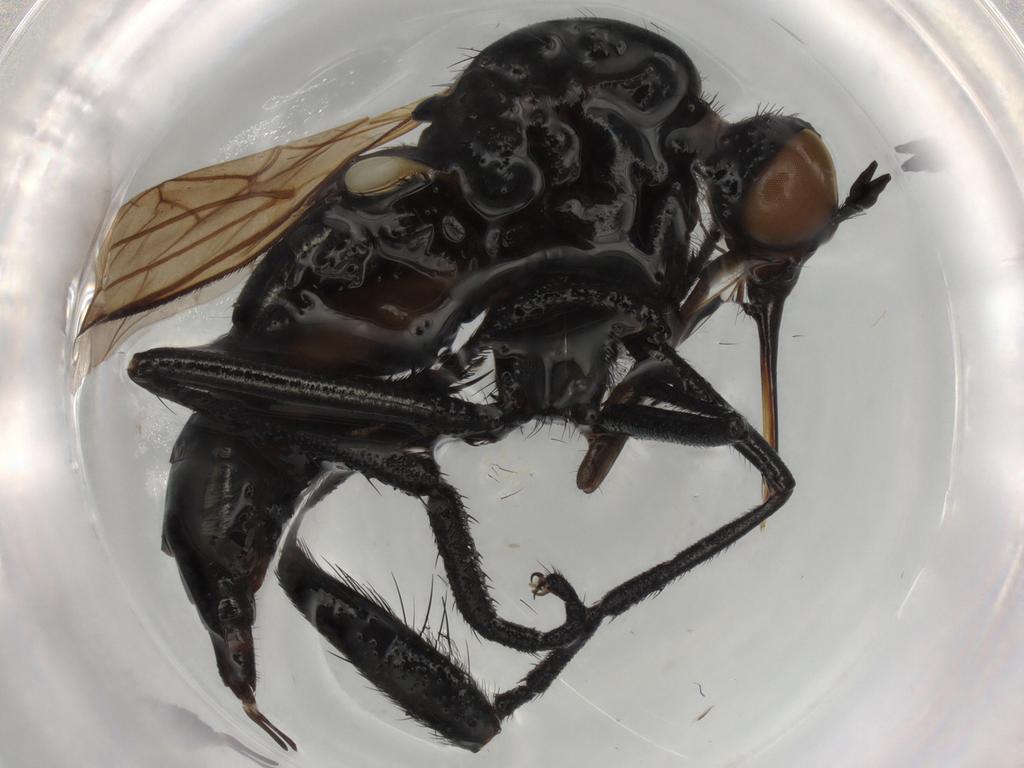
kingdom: Animalia
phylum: Arthropoda
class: Insecta
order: Diptera
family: Empididae
